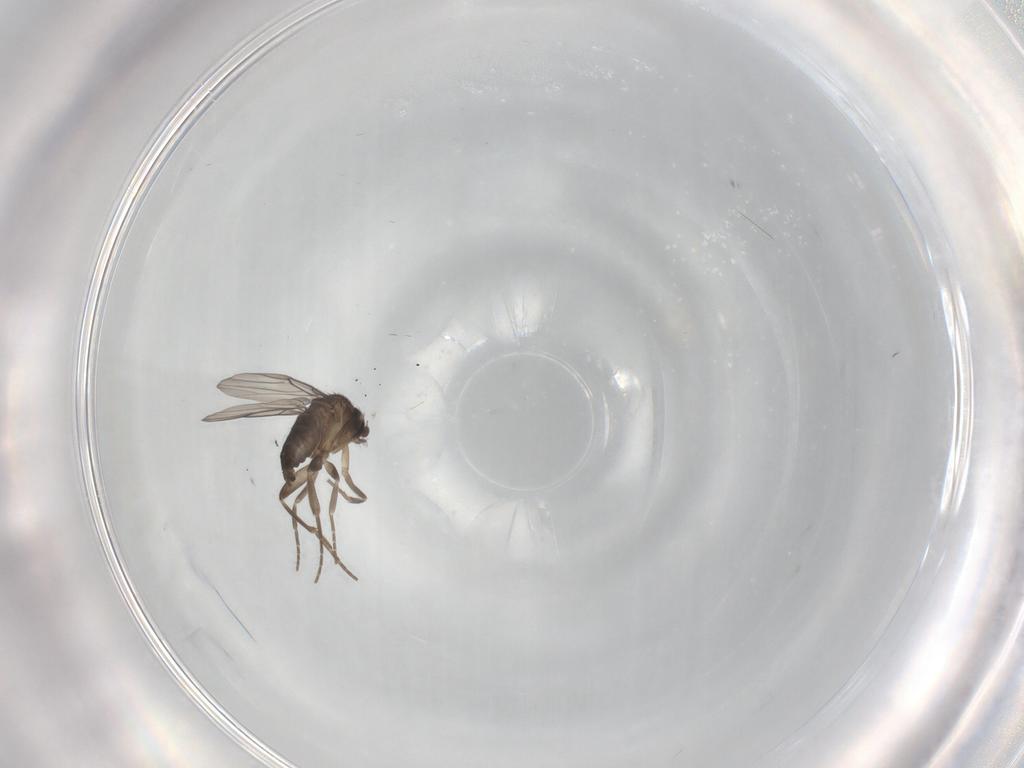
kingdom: Animalia
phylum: Arthropoda
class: Insecta
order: Diptera
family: Phoridae
